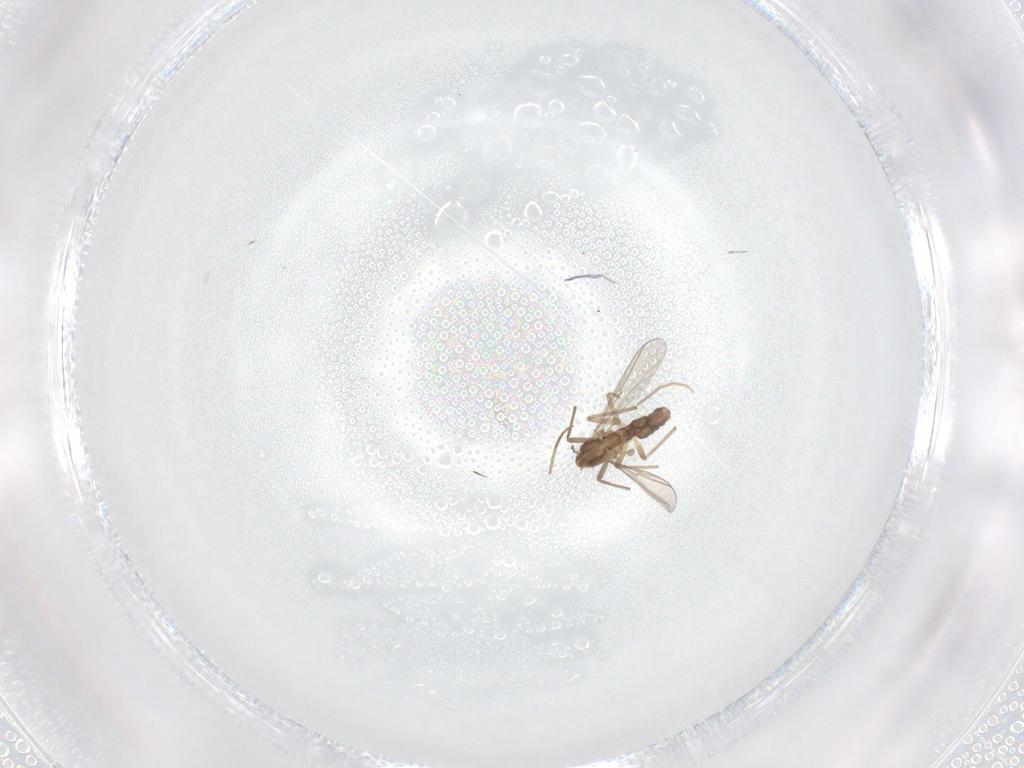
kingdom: Animalia
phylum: Arthropoda
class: Insecta
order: Diptera
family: Chironomidae
